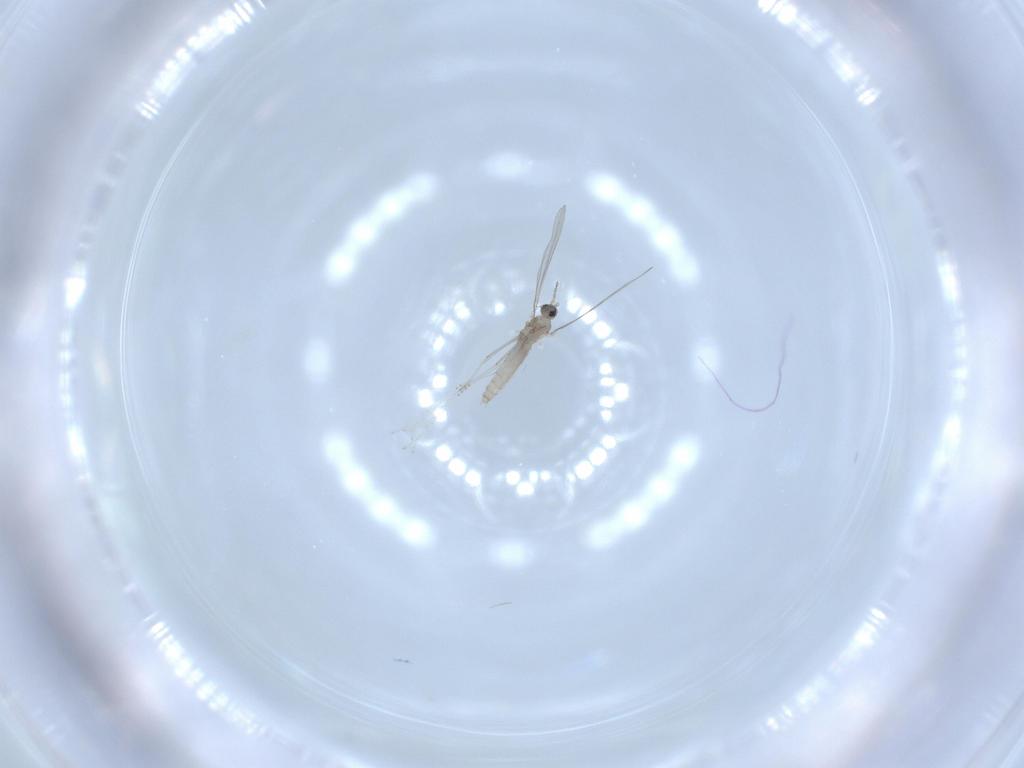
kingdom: Animalia
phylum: Arthropoda
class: Insecta
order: Diptera
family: Cecidomyiidae
